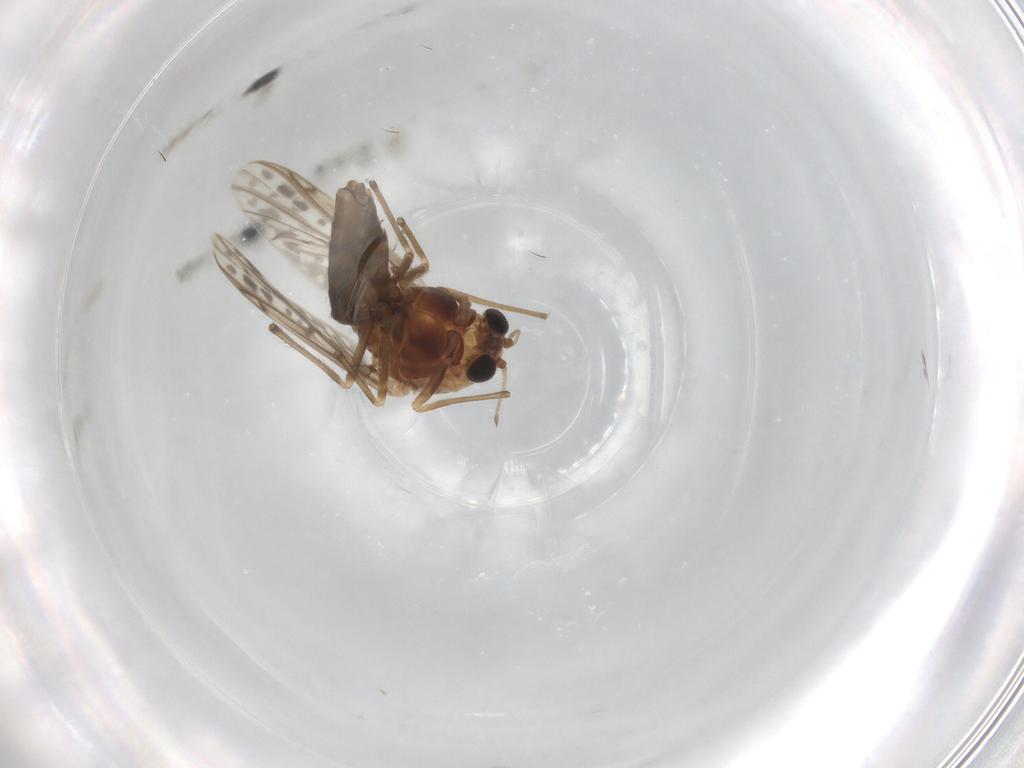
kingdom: Animalia
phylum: Arthropoda
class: Insecta
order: Diptera
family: Chironomidae
